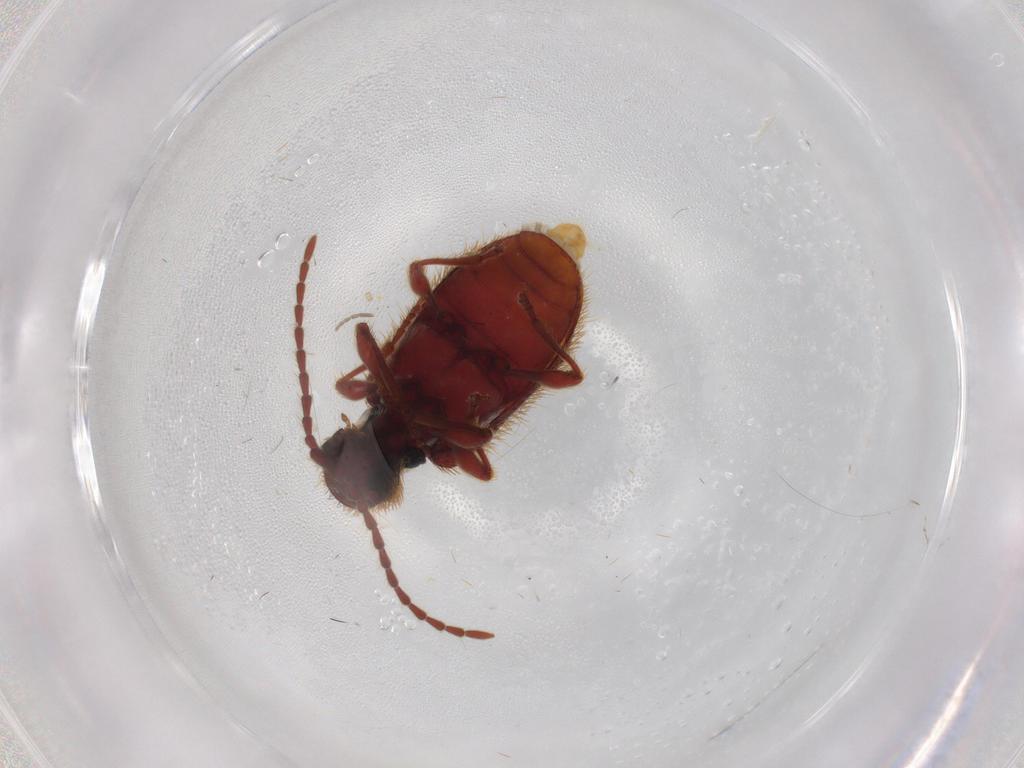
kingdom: Animalia
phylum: Arthropoda
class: Insecta
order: Coleoptera
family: Ptinidae
